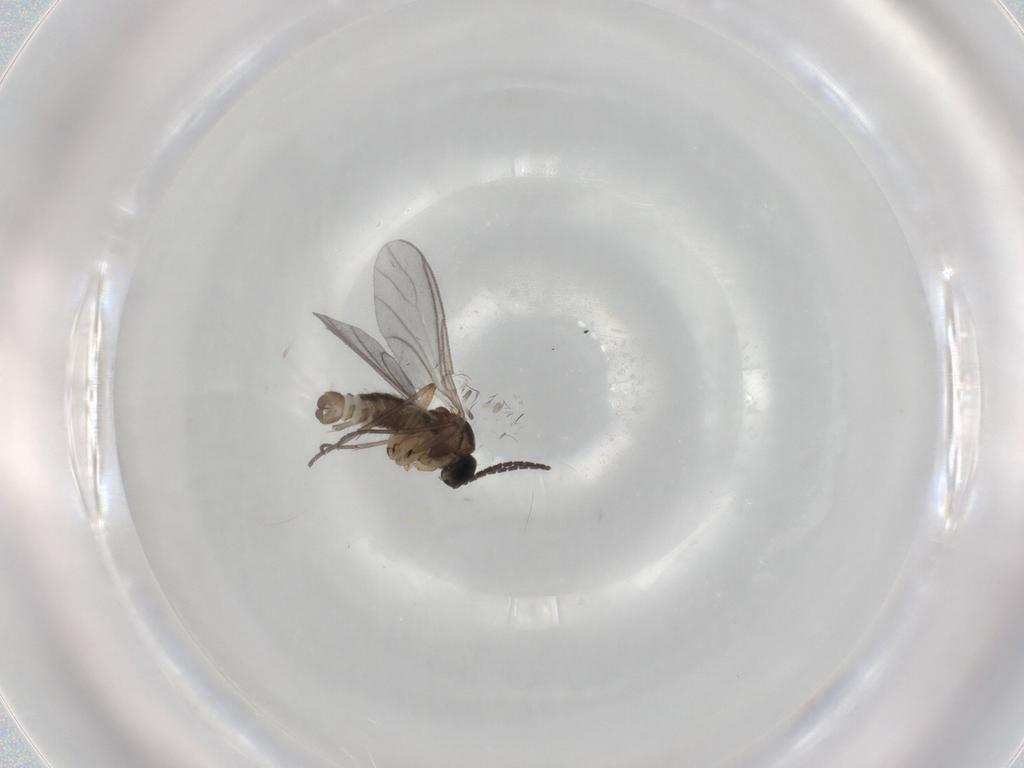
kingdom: Animalia
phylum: Arthropoda
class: Insecta
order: Diptera
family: Sciaridae
